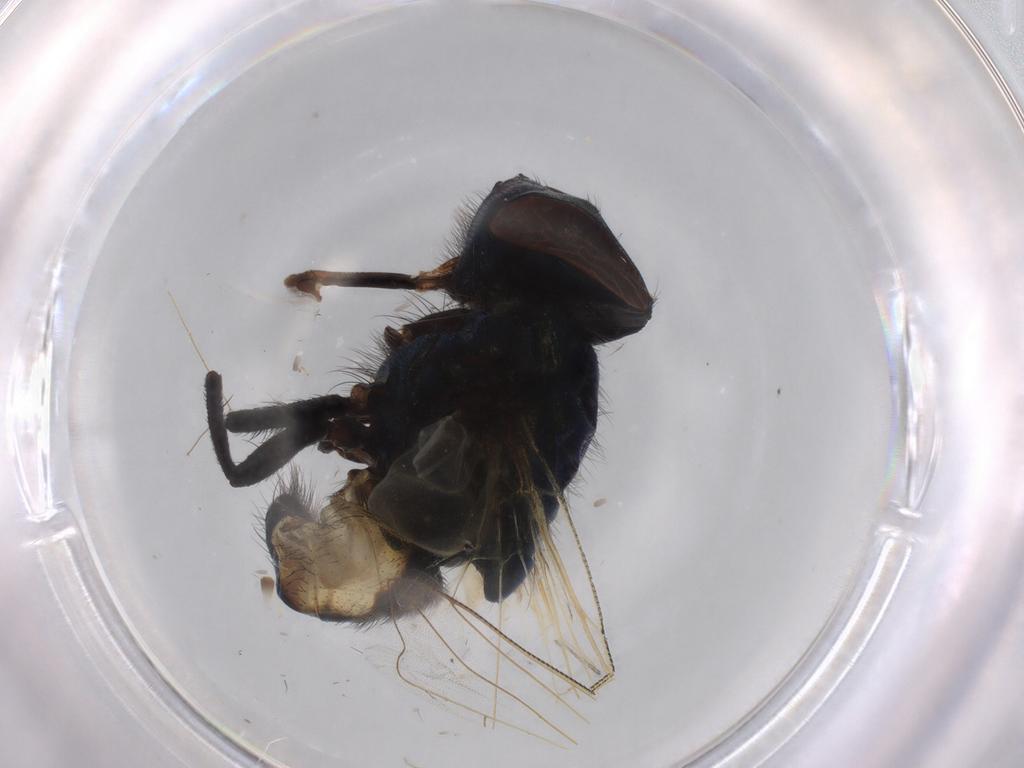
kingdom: Animalia
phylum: Arthropoda
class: Insecta
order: Diptera
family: Muscidae
